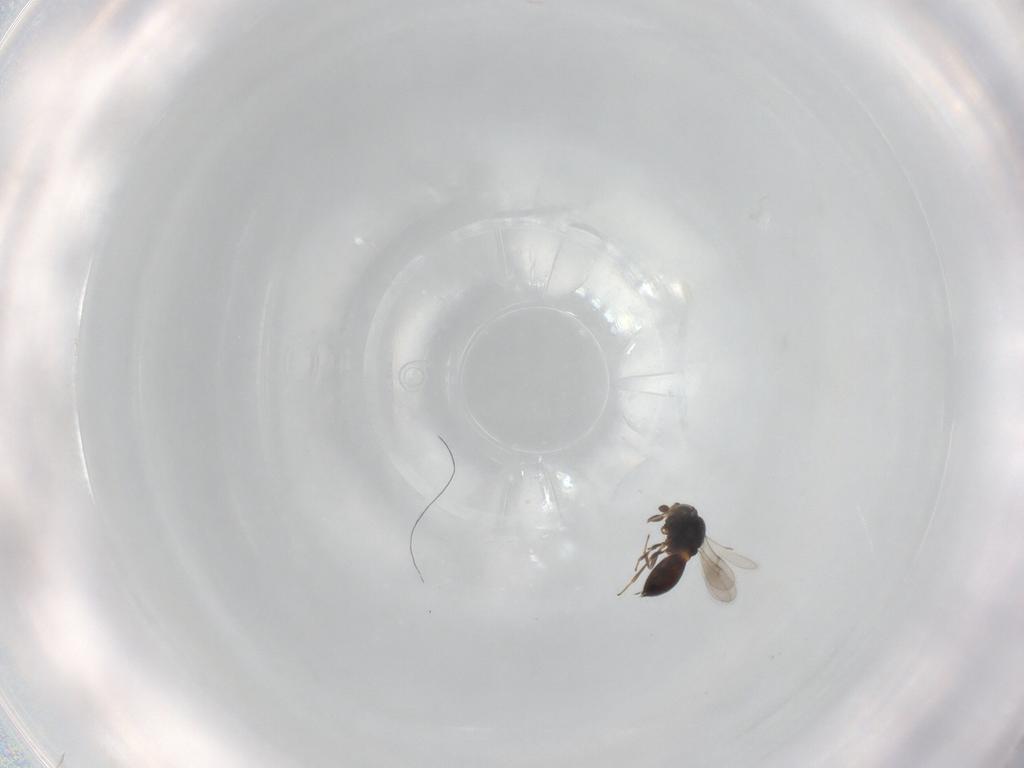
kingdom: Animalia
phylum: Arthropoda
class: Insecta
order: Hymenoptera
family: Scelionidae
